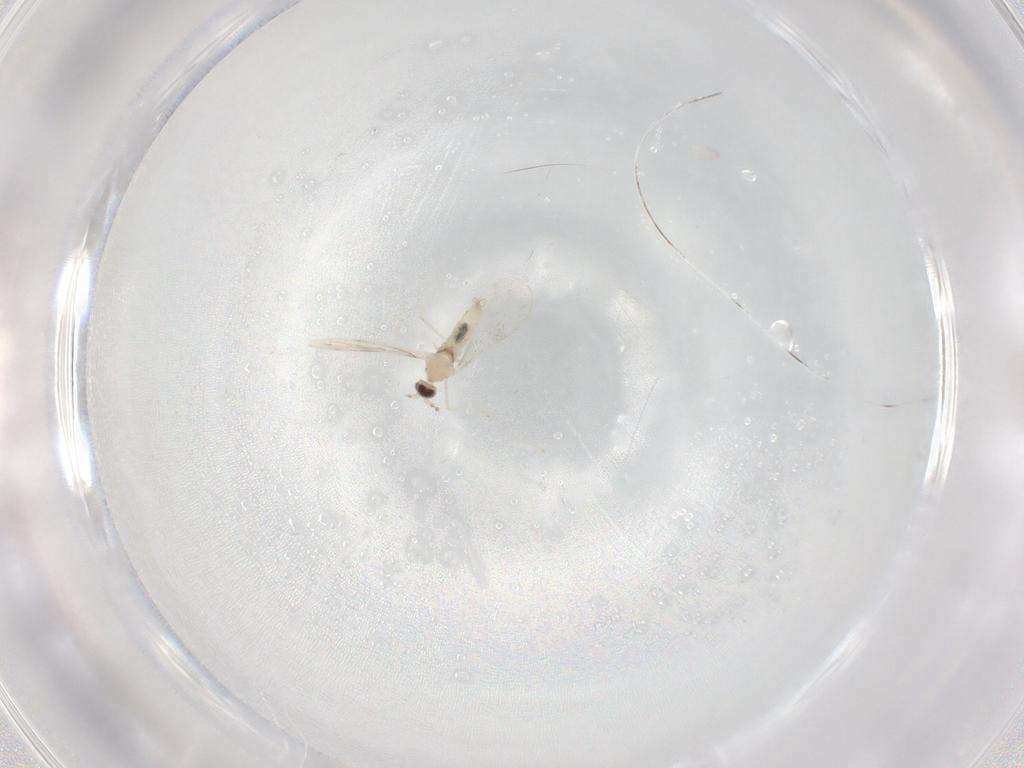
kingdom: Animalia
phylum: Arthropoda
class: Insecta
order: Diptera
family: Cecidomyiidae
